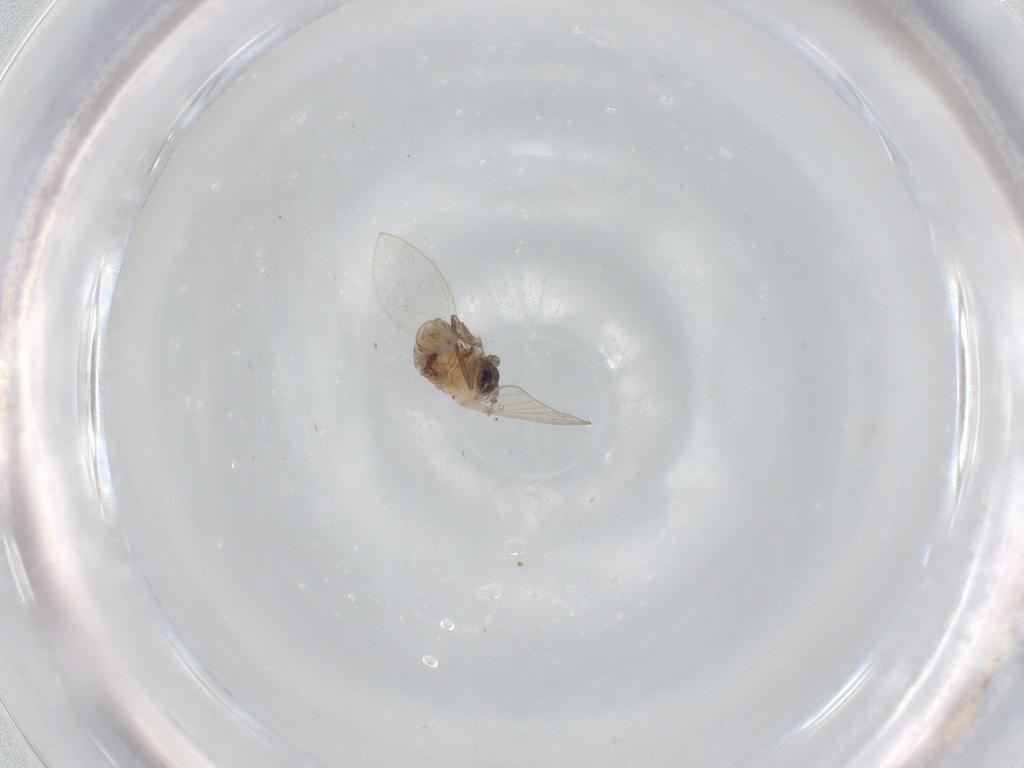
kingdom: Animalia
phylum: Arthropoda
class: Insecta
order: Diptera
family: Psychodidae
